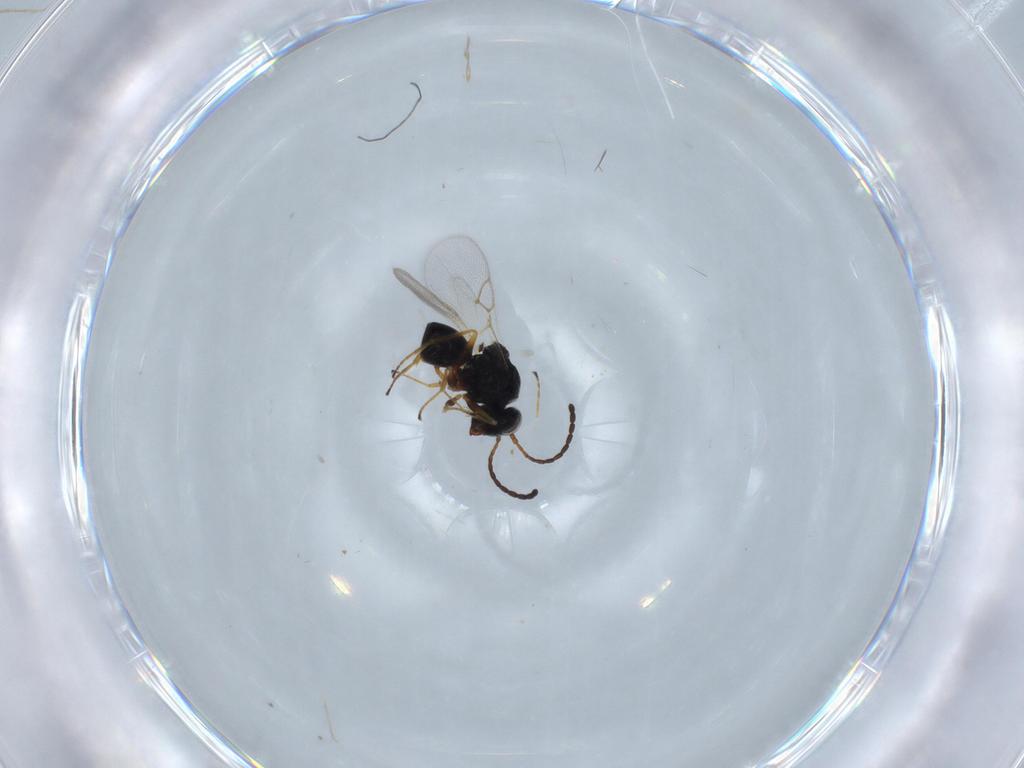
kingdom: Animalia
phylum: Arthropoda
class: Insecta
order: Hymenoptera
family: Figitidae
